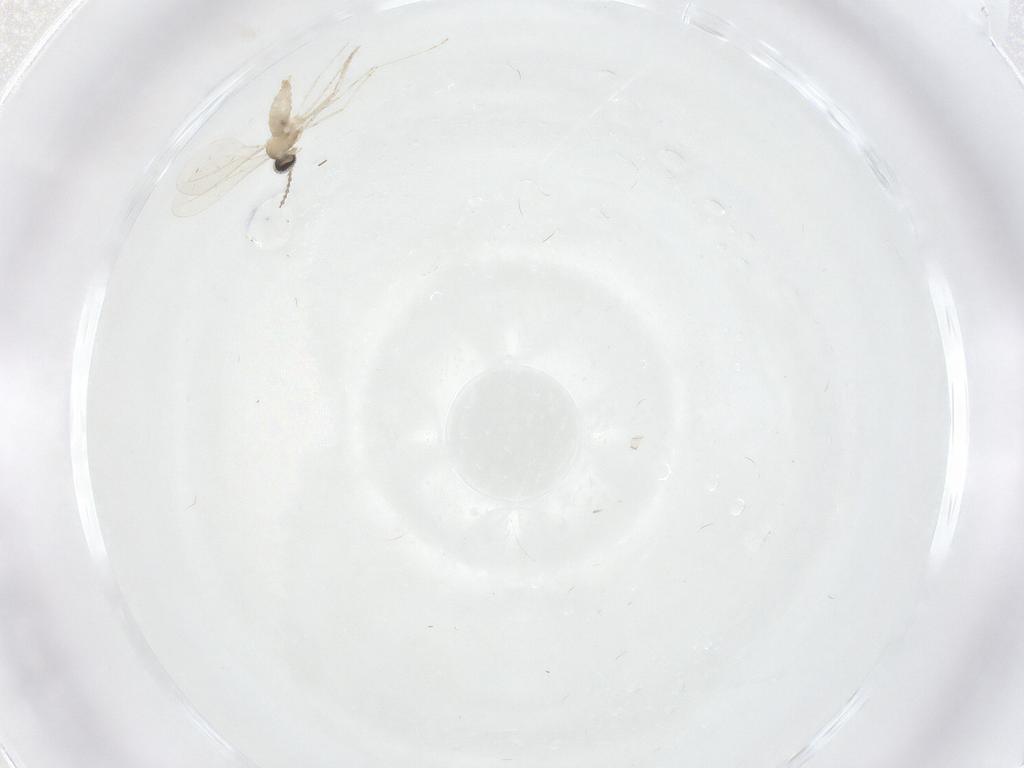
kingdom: Animalia
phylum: Arthropoda
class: Insecta
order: Diptera
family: Cecidomyiidae
